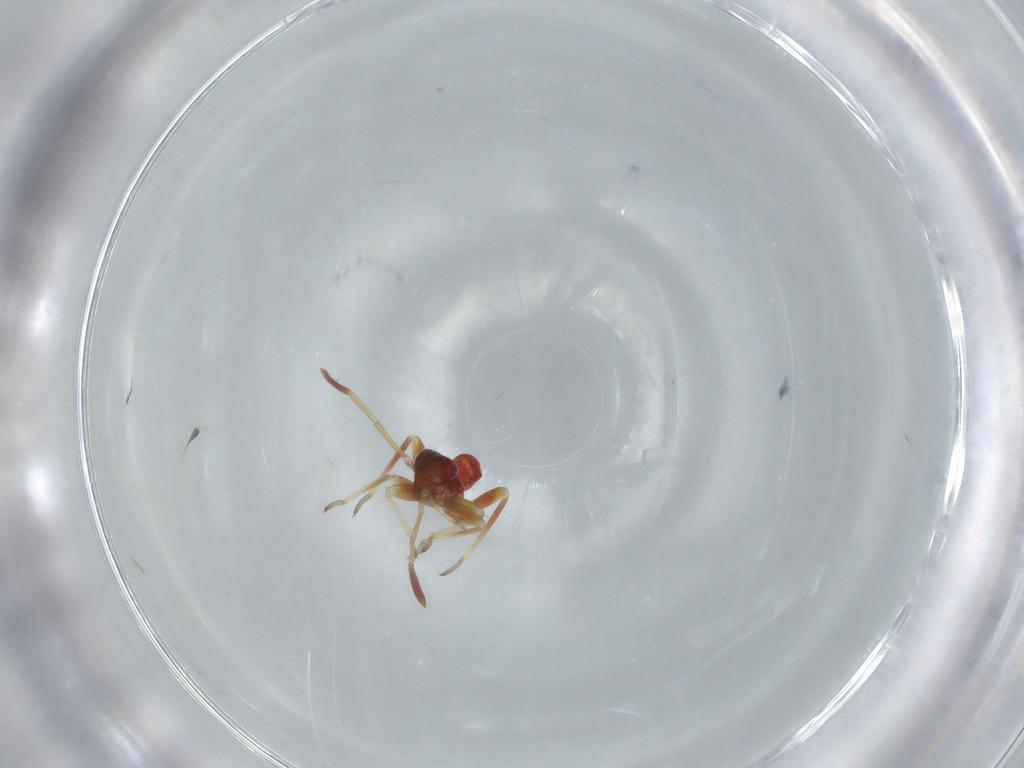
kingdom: Animalia
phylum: Arthropoda
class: Insecta
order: Hemiptera
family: Miridae
